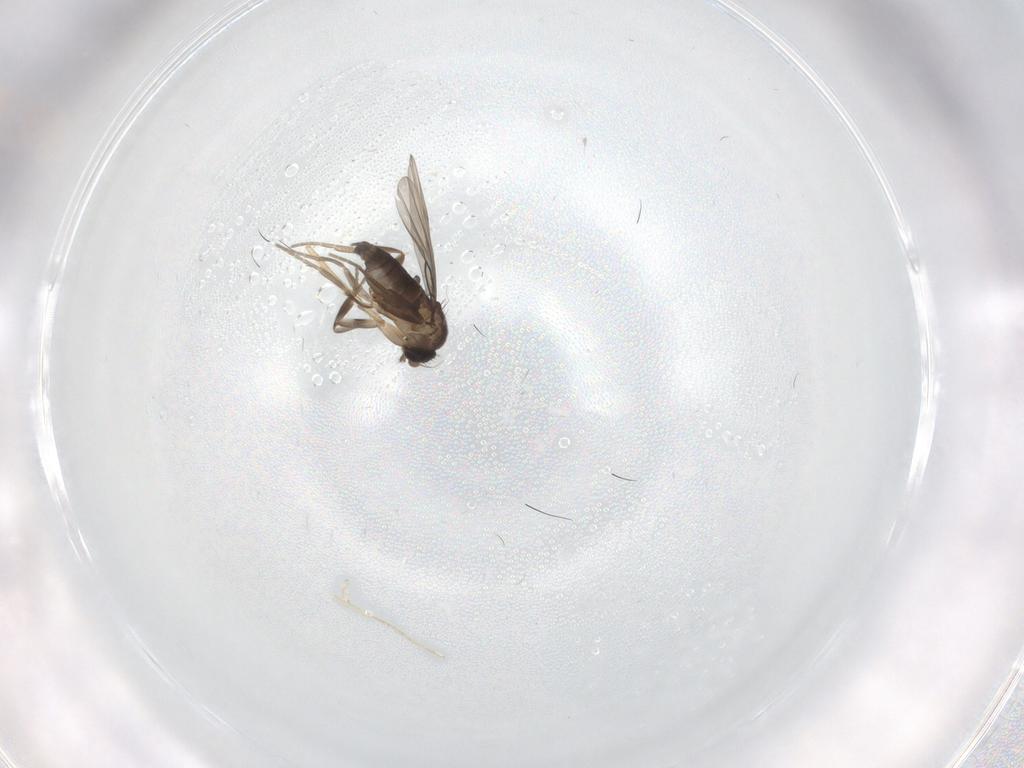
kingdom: Animalia
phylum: Arthropoda
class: Insecta
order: Diptera
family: Phoridae
